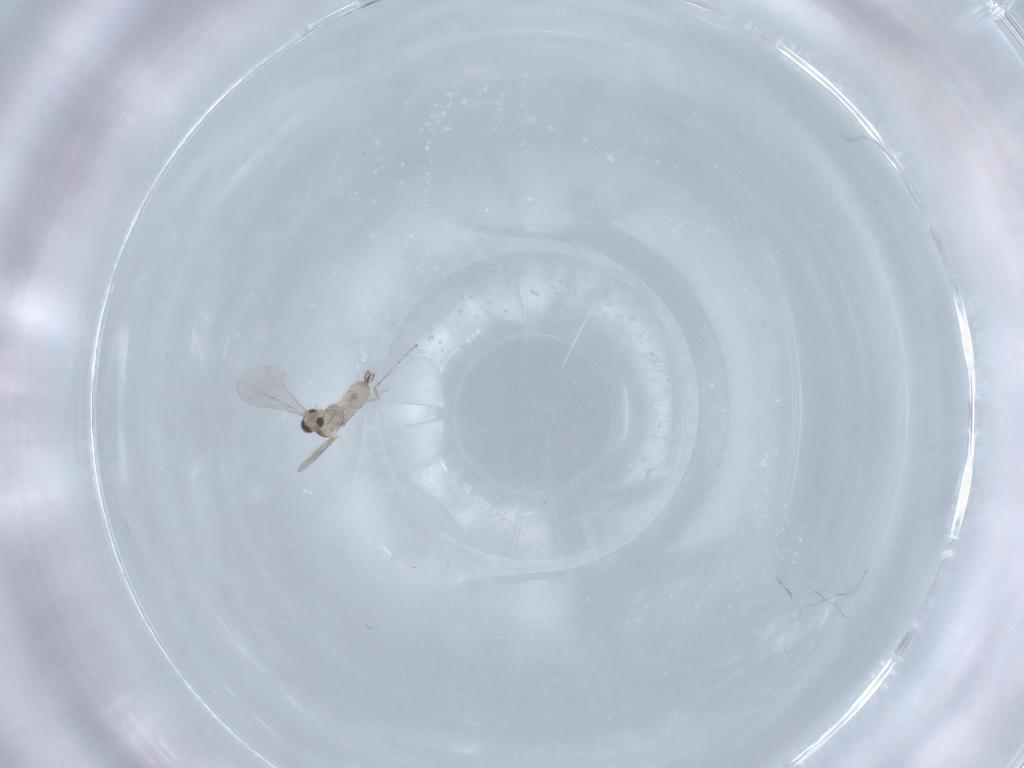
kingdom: Animalia
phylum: Arthropoda
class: Insecta
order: Diptera
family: Cecidomyiidae
